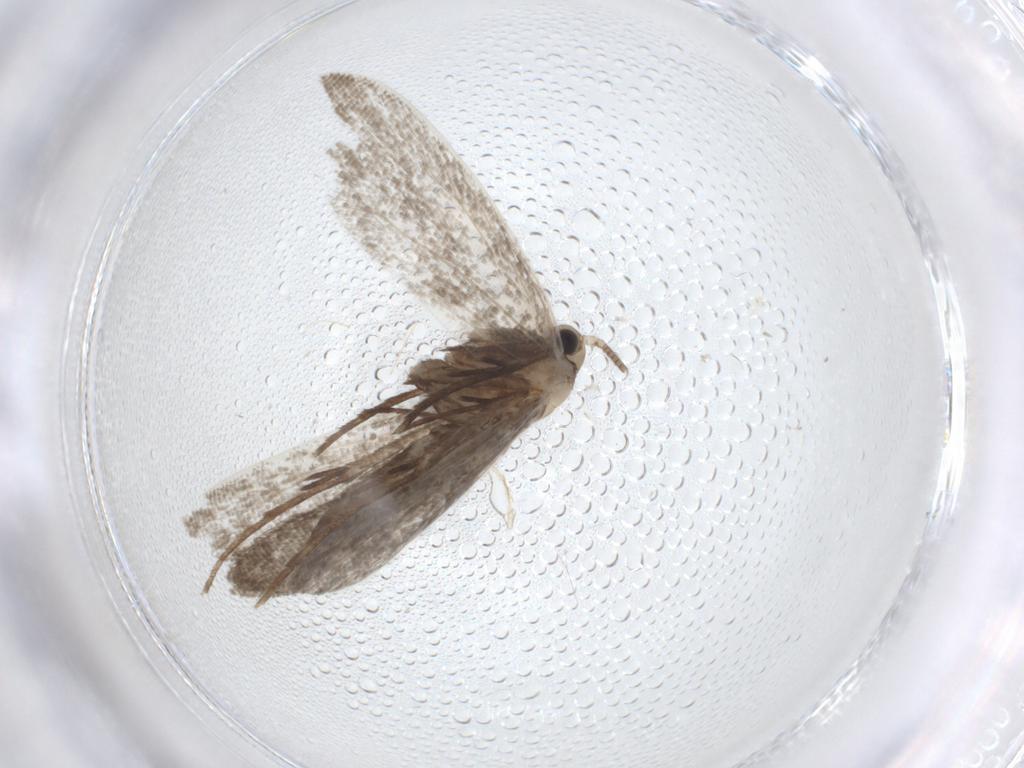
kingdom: Animalia
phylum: Arthropoda
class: Insecta
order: Lepidoptera
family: Nymphalidae
